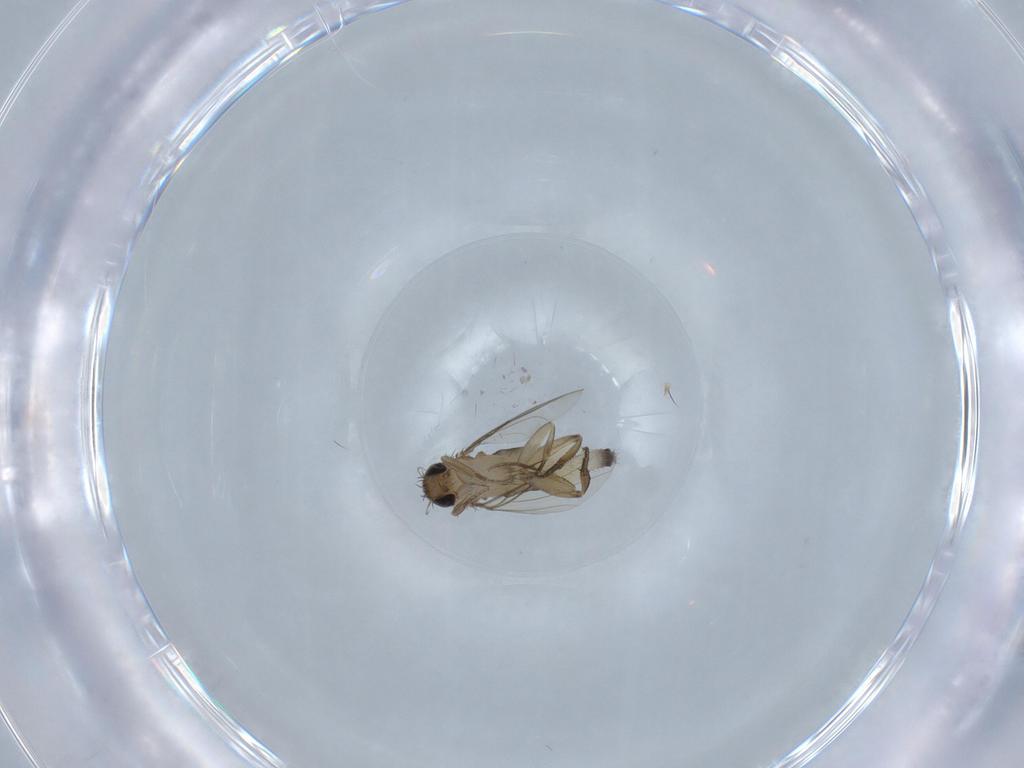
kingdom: Animalia
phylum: Arthropoda
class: Insecta
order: Diptera
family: Phoridae
